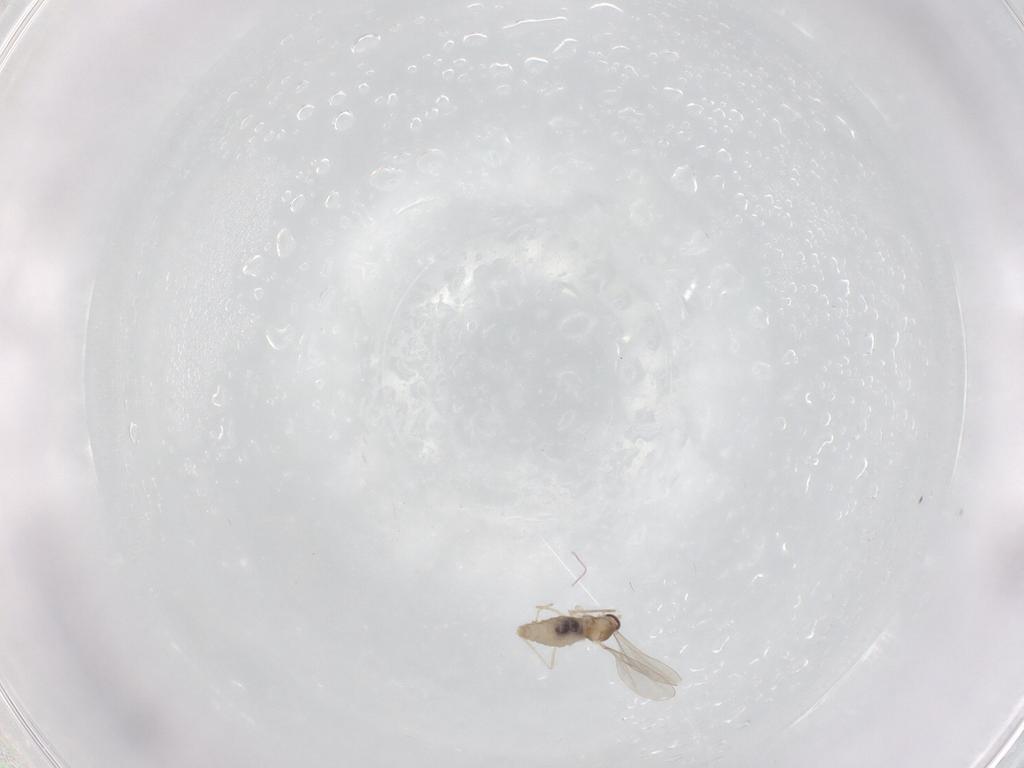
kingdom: Animalia
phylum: Arthropoda
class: Insecta
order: Diptera
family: Cecidomyiidae
